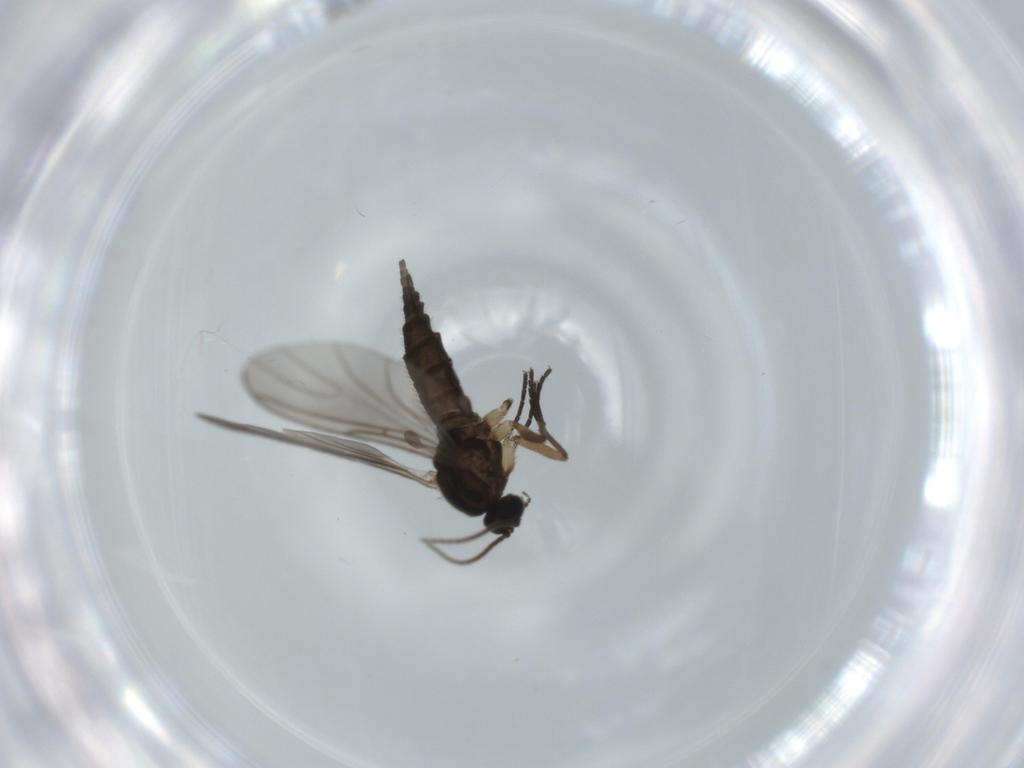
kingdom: Animalia
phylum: Arthropoda
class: Insecta
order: Diptera
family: Sciaridae
